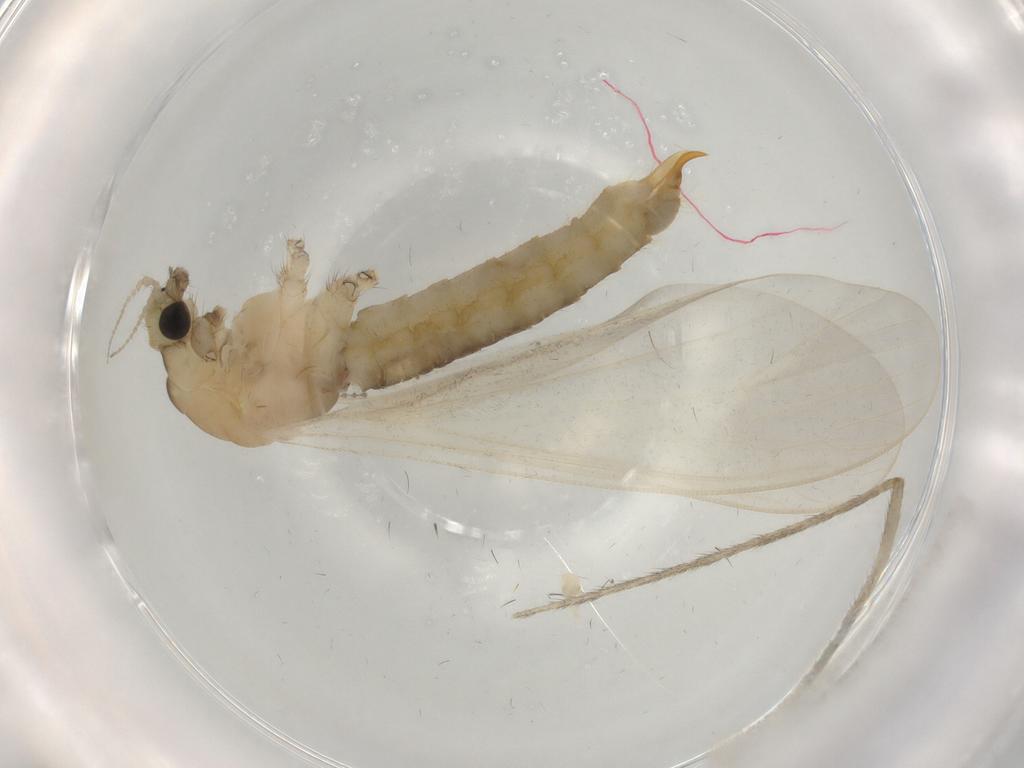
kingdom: Animalia
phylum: Arthropoda
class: Insecta
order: Diptera
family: Limoniidae
